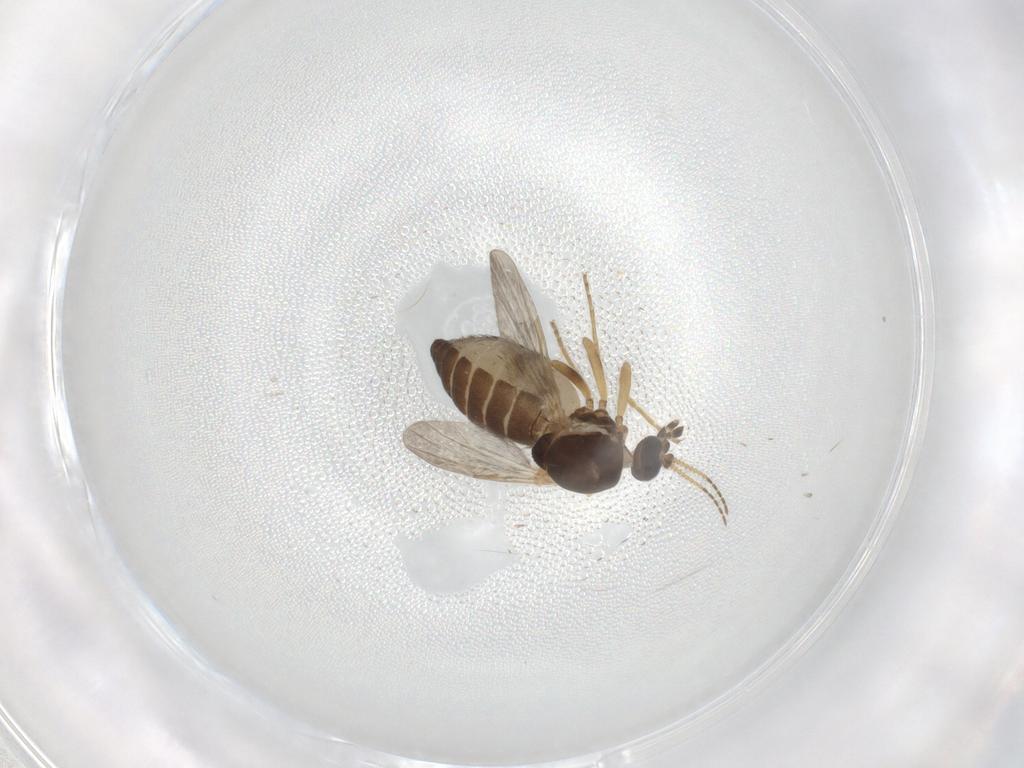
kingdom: Animalia
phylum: Arthropoda
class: Insecta
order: Diptera
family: Ceratopogonidae
